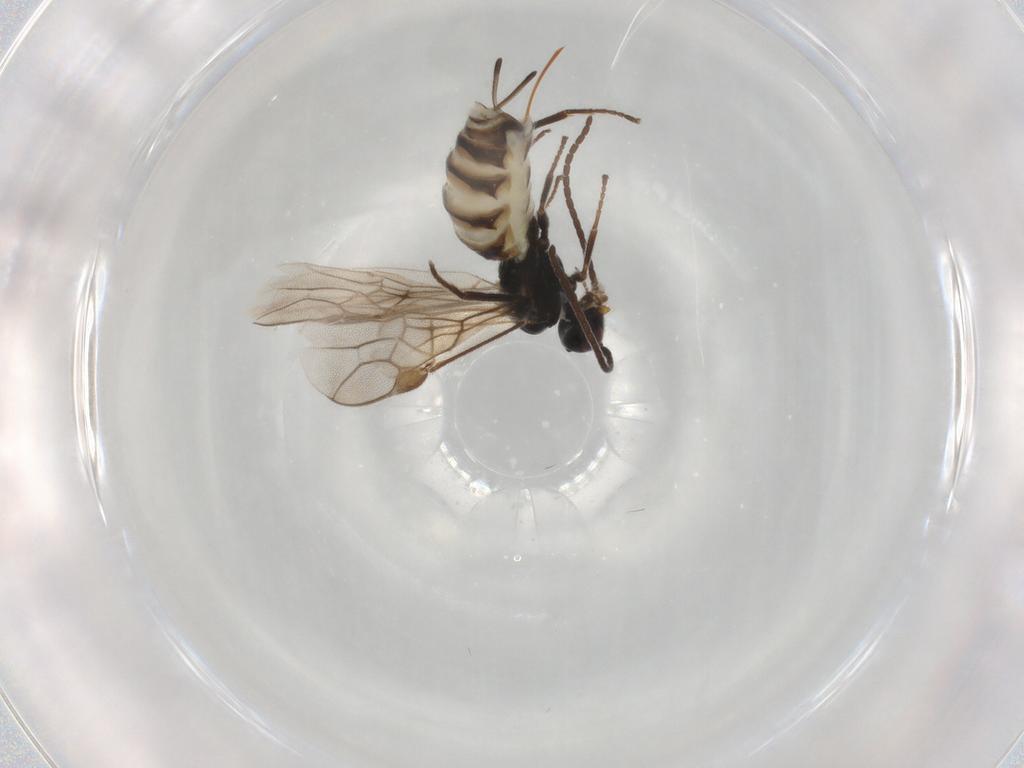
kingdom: Animalia
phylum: Arthropoda
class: Insecta
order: Hymenoptera
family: Braconidae
